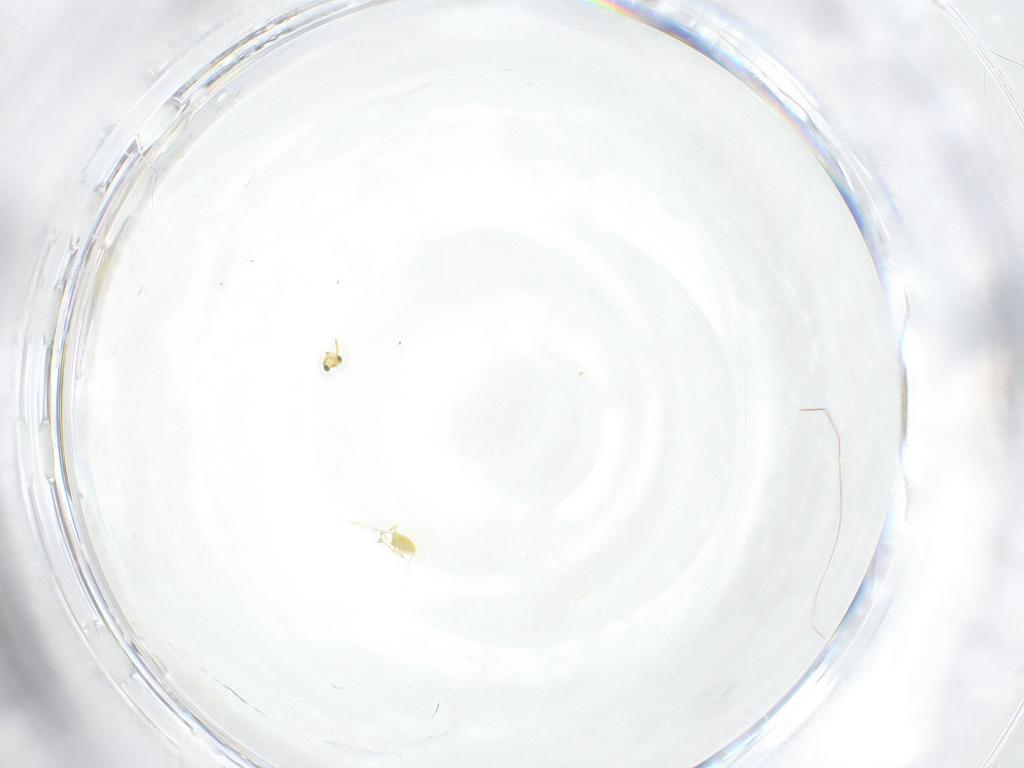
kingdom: Animalia
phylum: Arthropoda
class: Insecta
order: Hymenoptera
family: Aphelinidae
